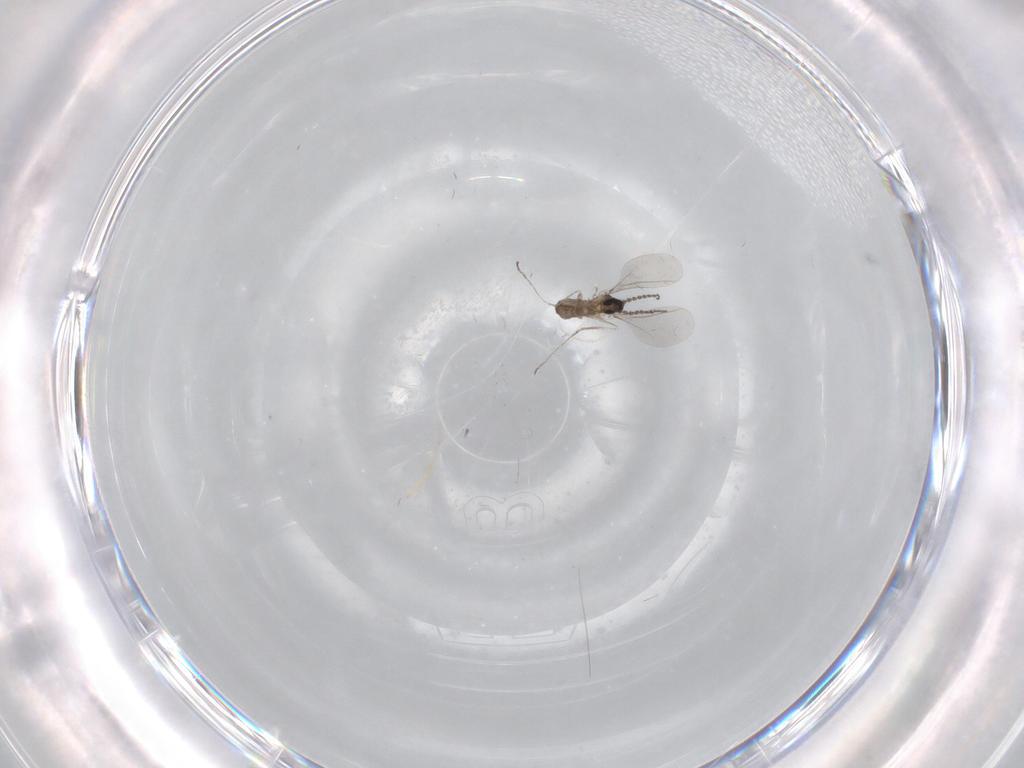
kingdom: Animalia
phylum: Arthropoda
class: Insecta
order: Diptera
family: Cecidomyiidae
